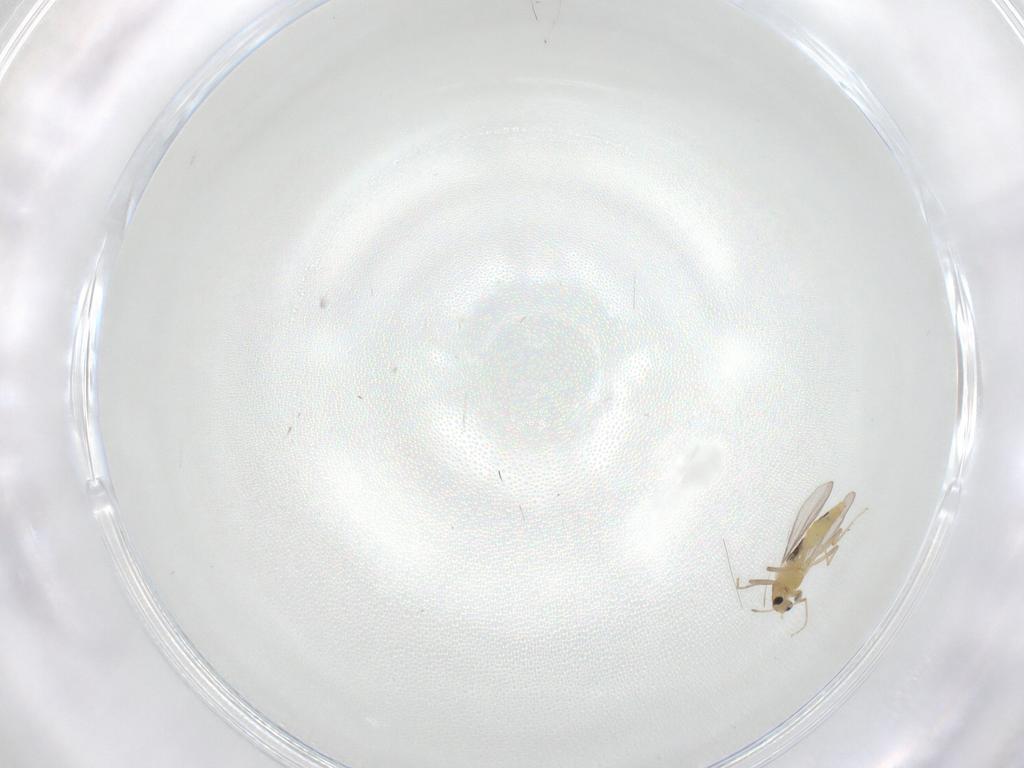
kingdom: Animalia
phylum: Arthropoda
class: Insecta
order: Diptera
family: Chironomidae
